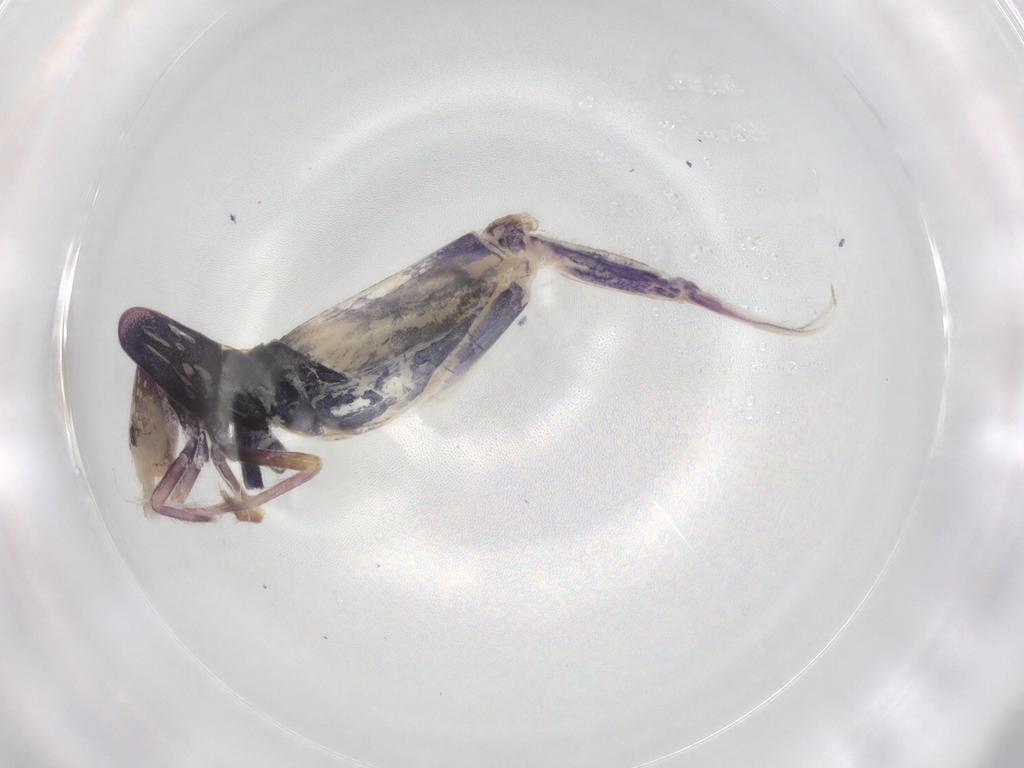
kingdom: Animalia
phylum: Arthropoda
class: Collembola
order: Entomobryomorpha
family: Entomobryidae
